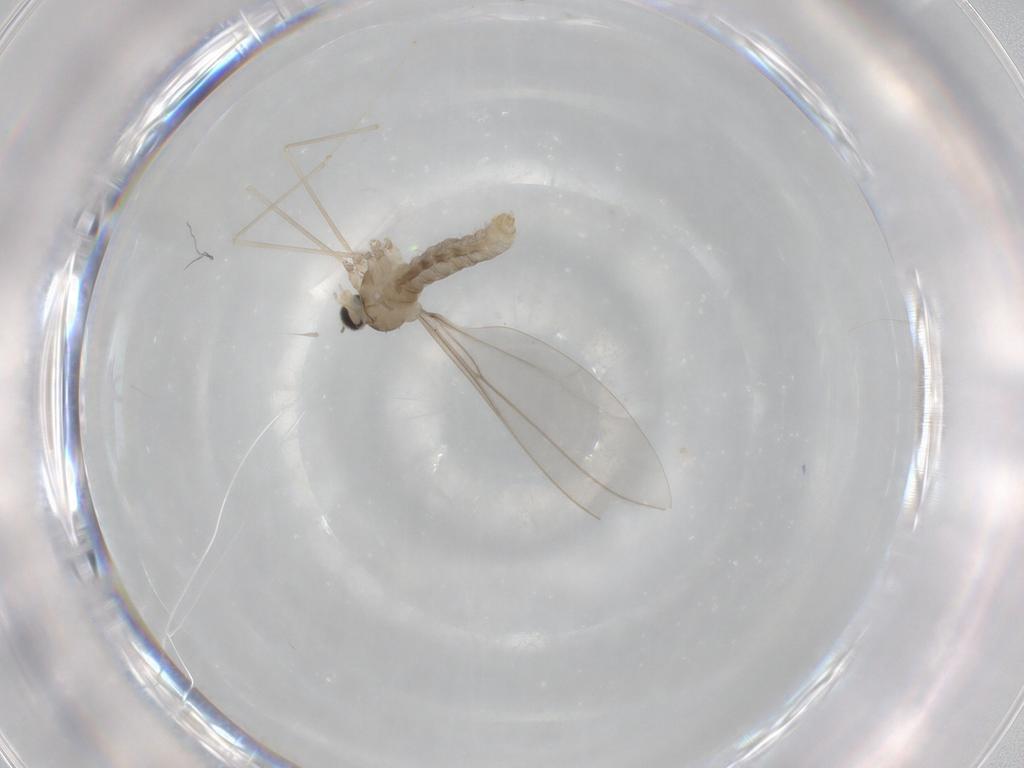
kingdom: Animalia
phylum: Arthropoda
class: Insecta
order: Diptera
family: Cecidomyiidae
